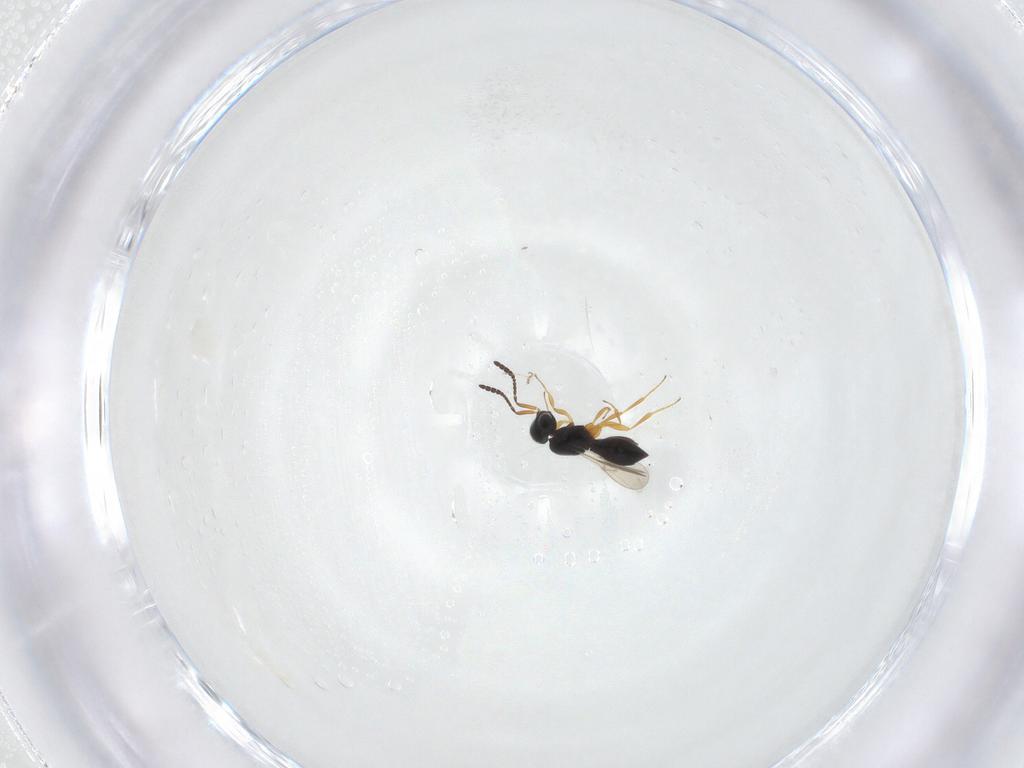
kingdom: Animalia
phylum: Arthropoda
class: Insecta
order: Hymenoptera
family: Scelionidae
